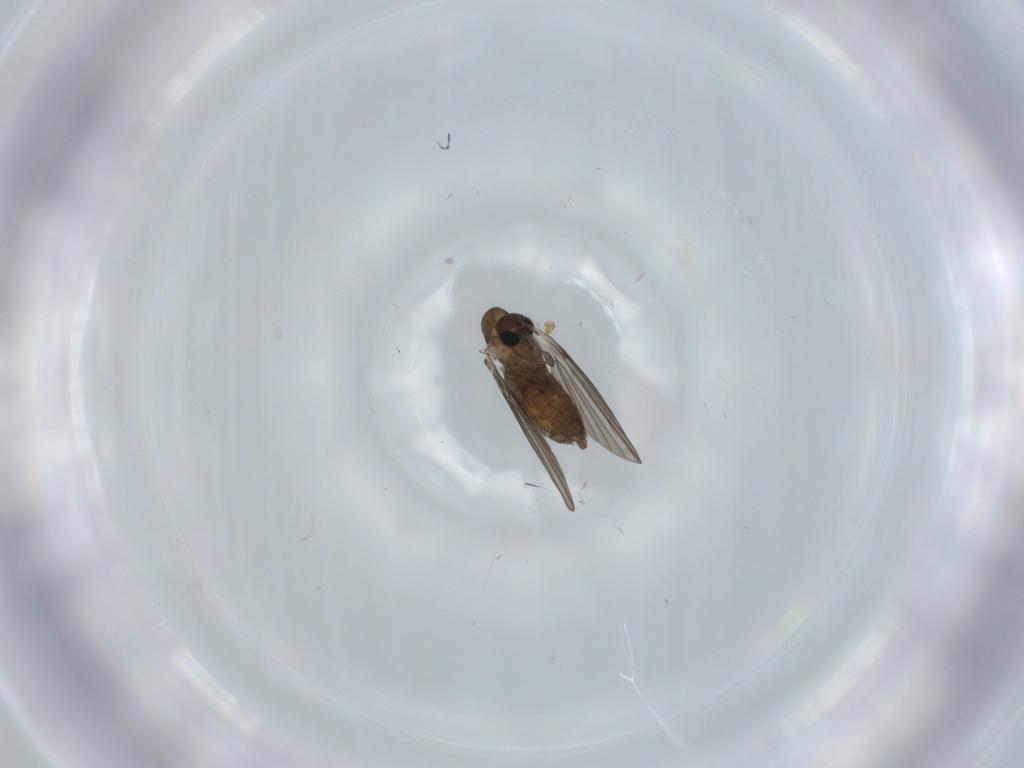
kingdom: Animalia
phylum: Arthropoda
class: Insecta
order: Diptera
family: Psychodidae
